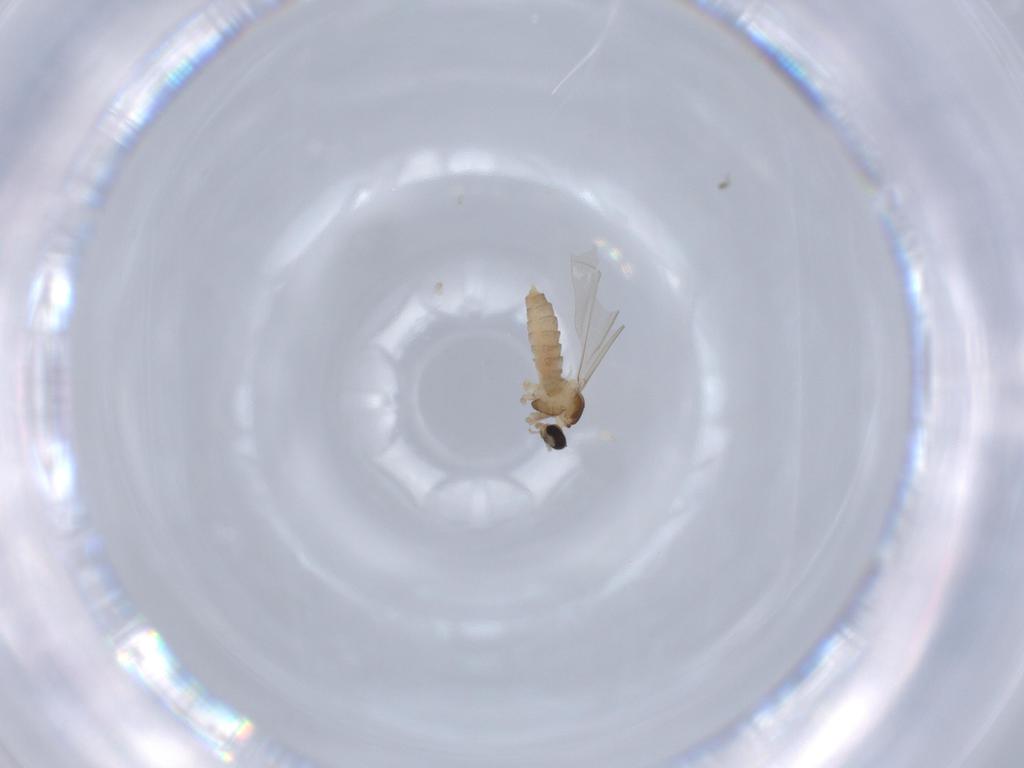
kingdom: Animalia
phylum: Arthropoda
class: Insecta
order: Diptera
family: Cecidomyiidae
